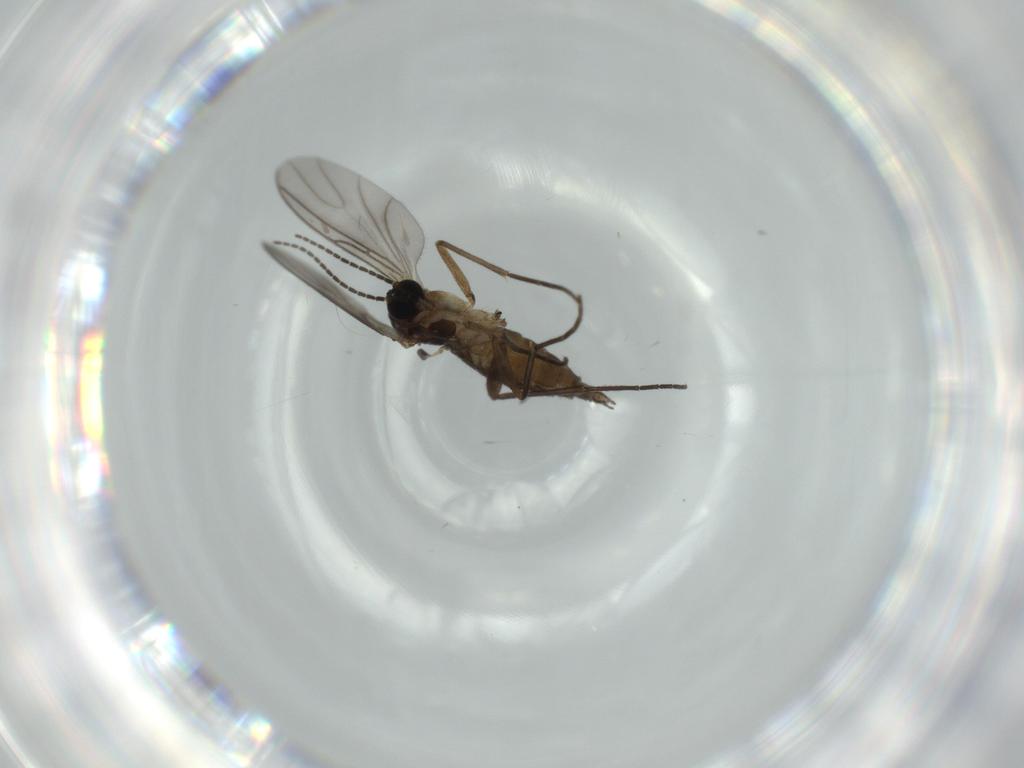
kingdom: Animalia
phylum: Arthropoda
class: Insecta
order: Diptera
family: Sciaridae
